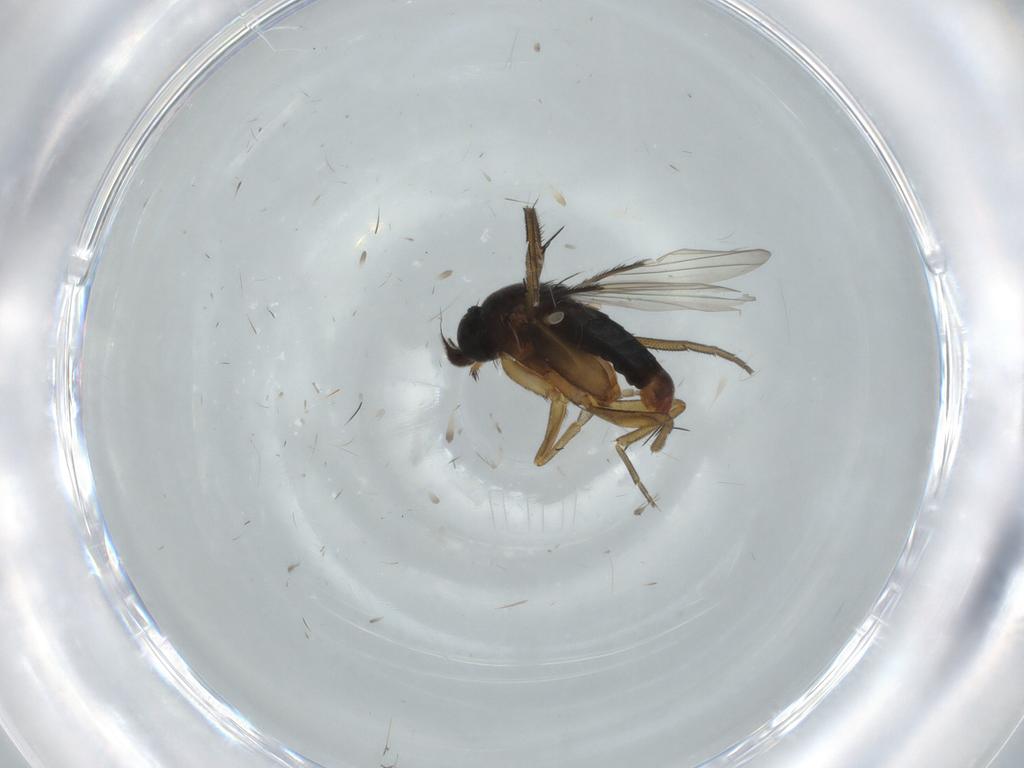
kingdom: Animalia
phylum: Arthropoda
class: Insecta
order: Diptera
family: Phoridae
